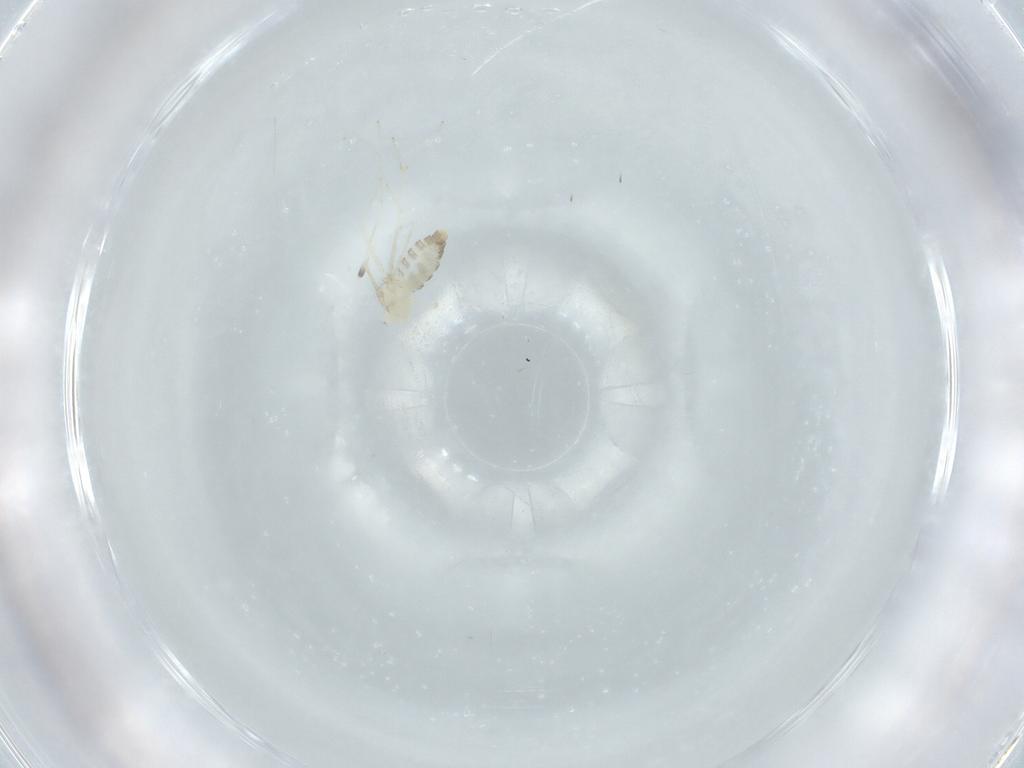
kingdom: Animalia
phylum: Arthropoda
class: Insecta
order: Diptera
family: Cecidomyiidae
